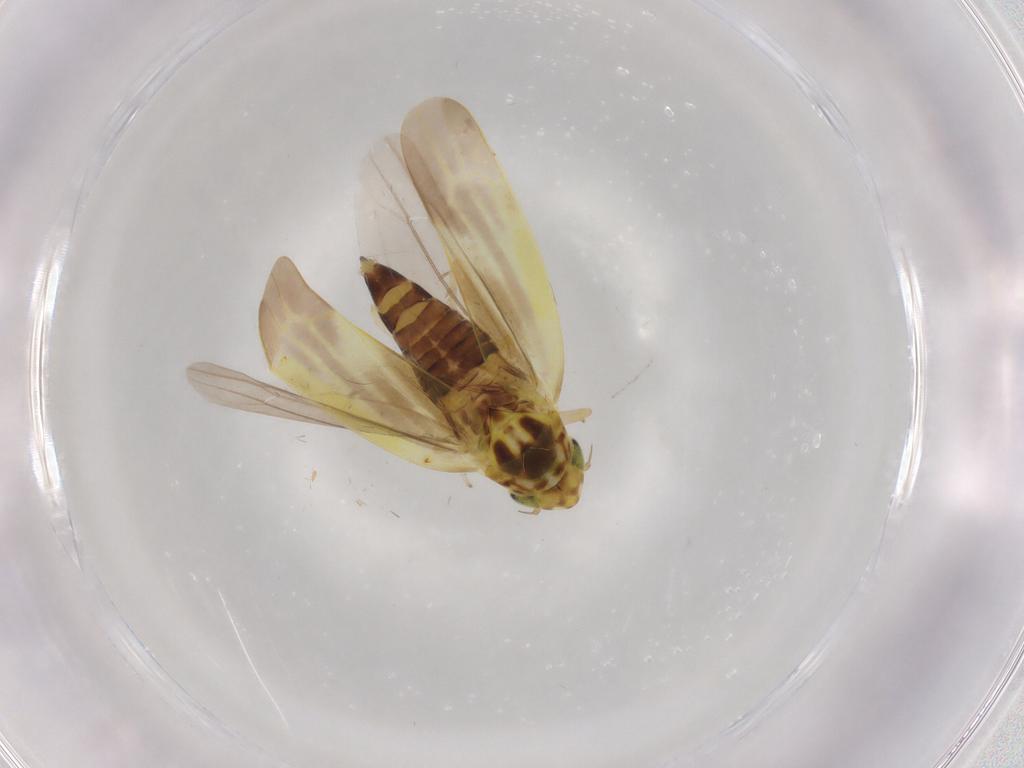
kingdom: Animalia
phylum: Arthropoda
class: Insecta
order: Hemiptera
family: Cicadellidae
